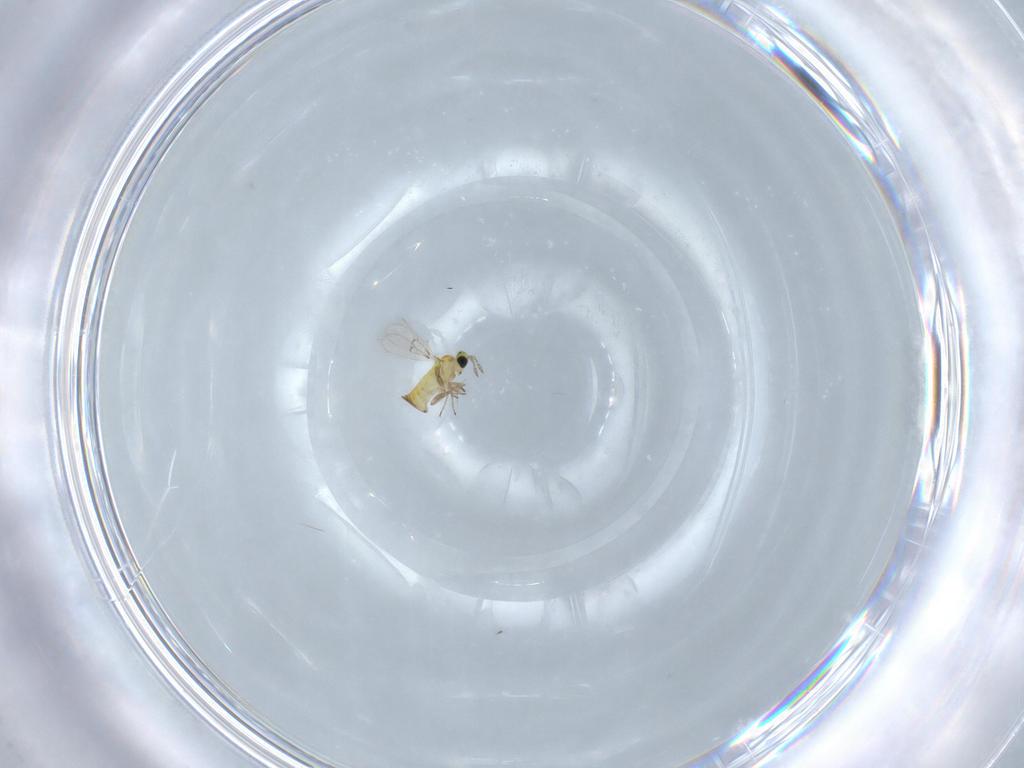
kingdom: Animalia
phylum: Arthropoda
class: Insecta
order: Hymenoptera
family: Trichogrammatidae
